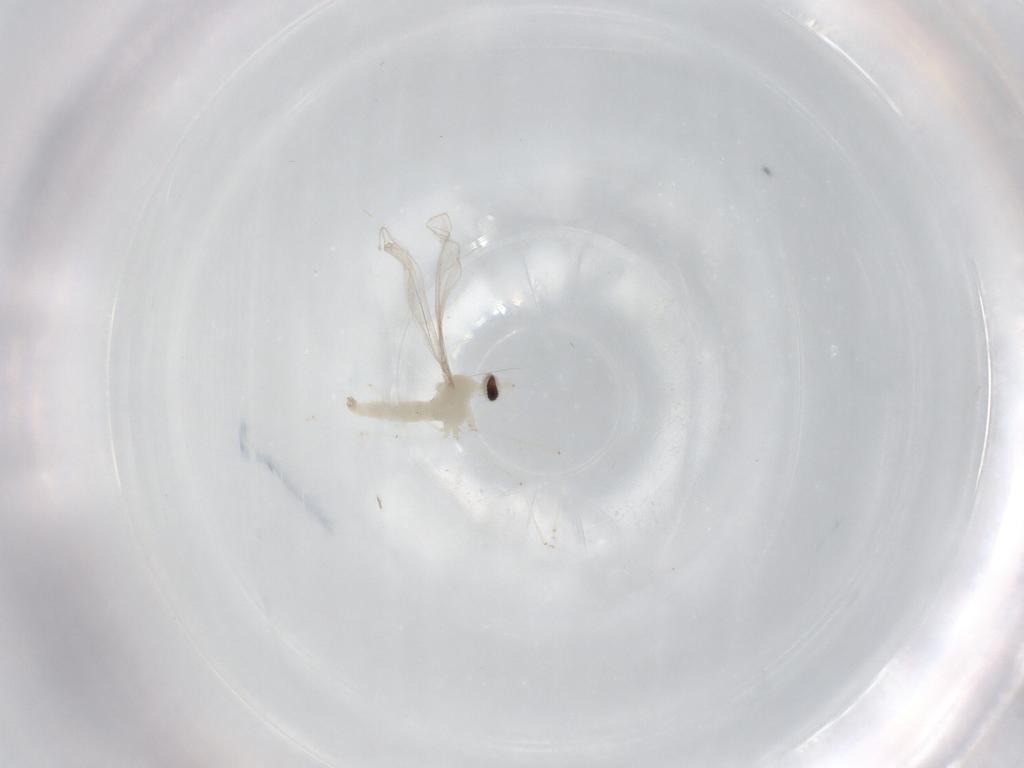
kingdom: Animalia
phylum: Arthropoda
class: Insecta
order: Diptera
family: Cecidomyiidae
